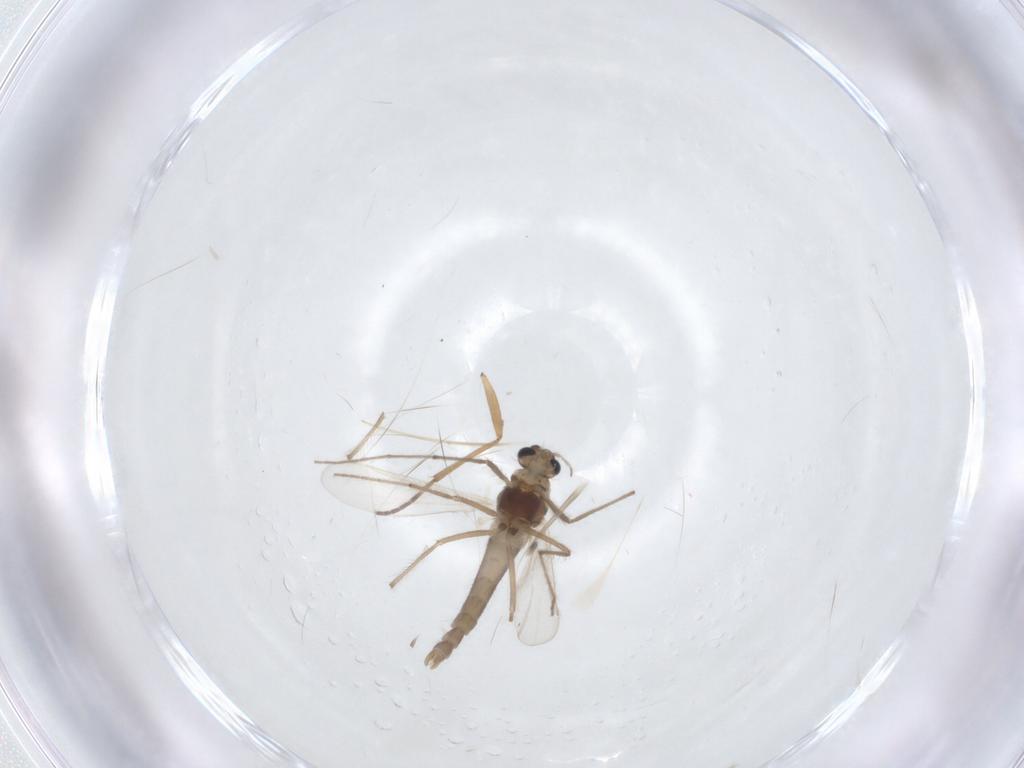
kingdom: Animalia
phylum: Arthropoda
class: Insecta
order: Diptera
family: Chironomidae
